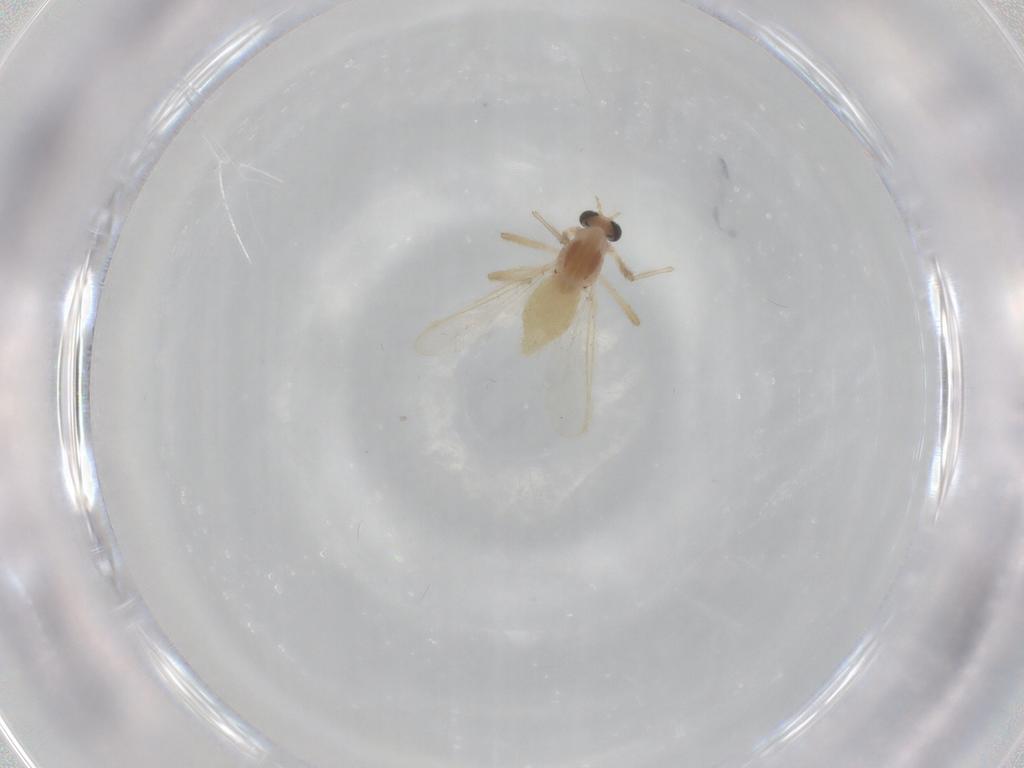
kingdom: Animalia
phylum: Arthropoda
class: Insecta
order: Diptera
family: Chironomidae
